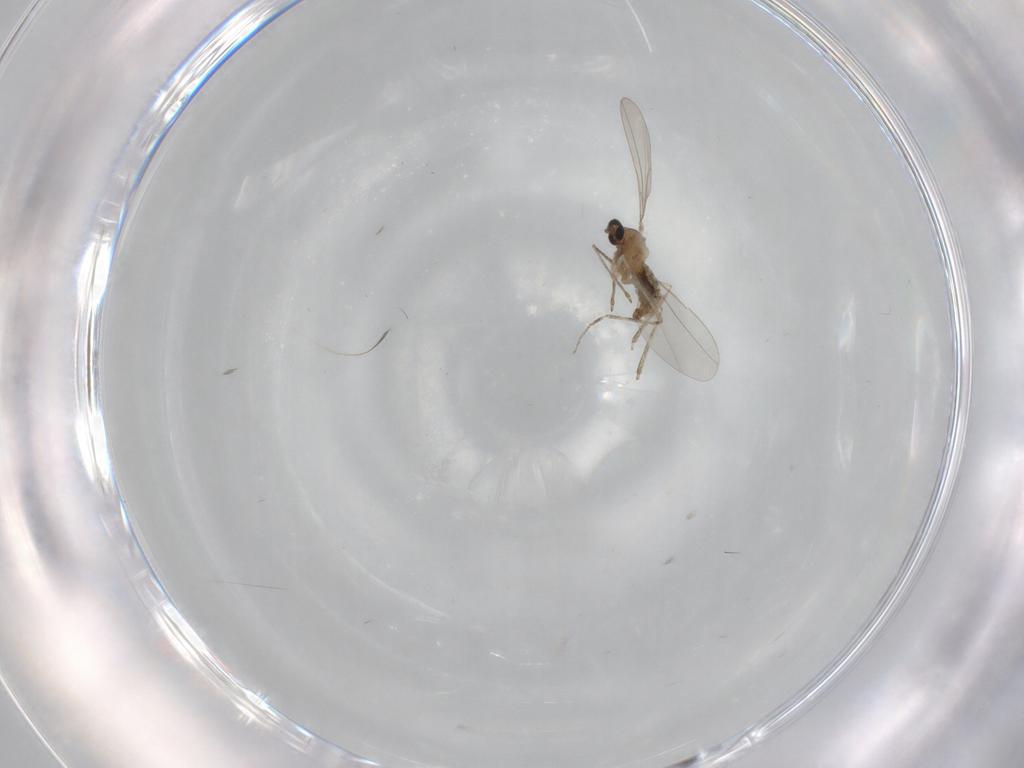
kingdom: Animalia
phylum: Arthropoda
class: Insecta
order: Diptera
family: Cecidomyiidae
